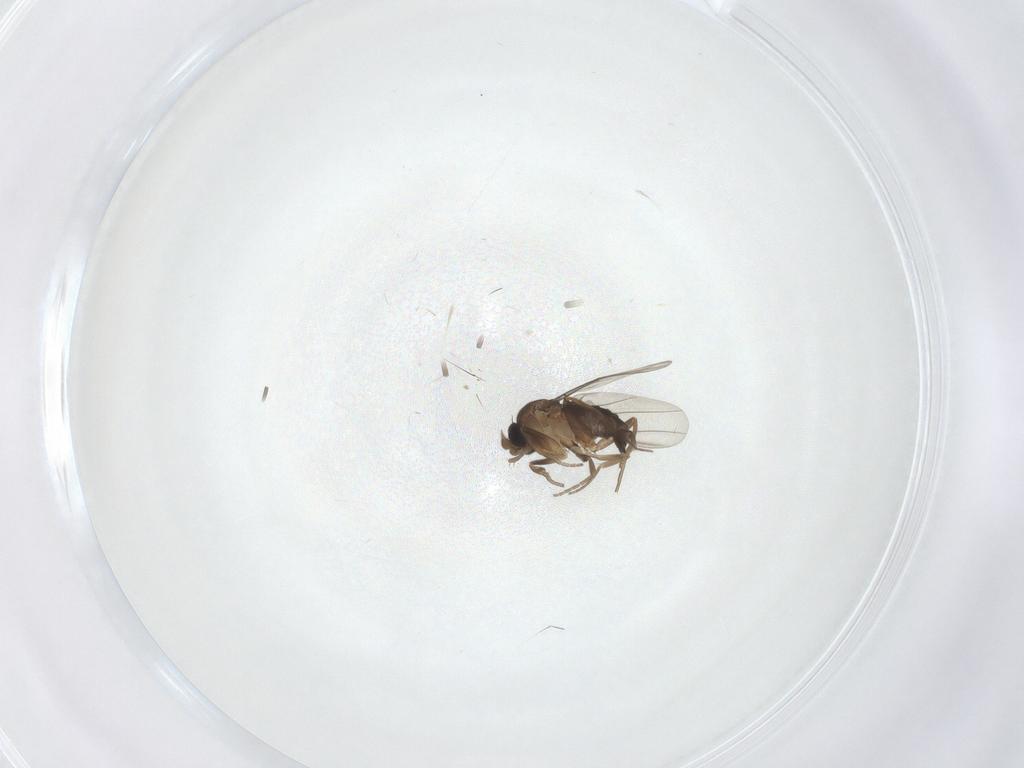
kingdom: Animalia
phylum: Arthropoda
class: Insecta
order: Diptera
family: Phoridae
